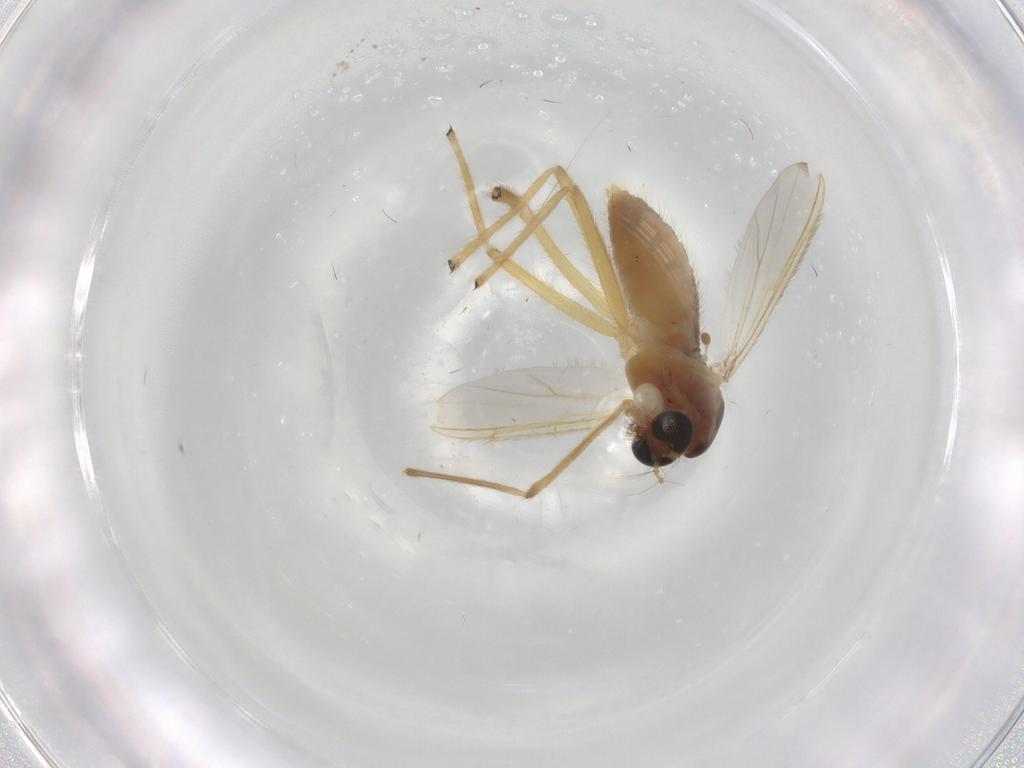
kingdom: Animalia
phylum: Arthropoda
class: Insecta
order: Diptera
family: Chironomidae
